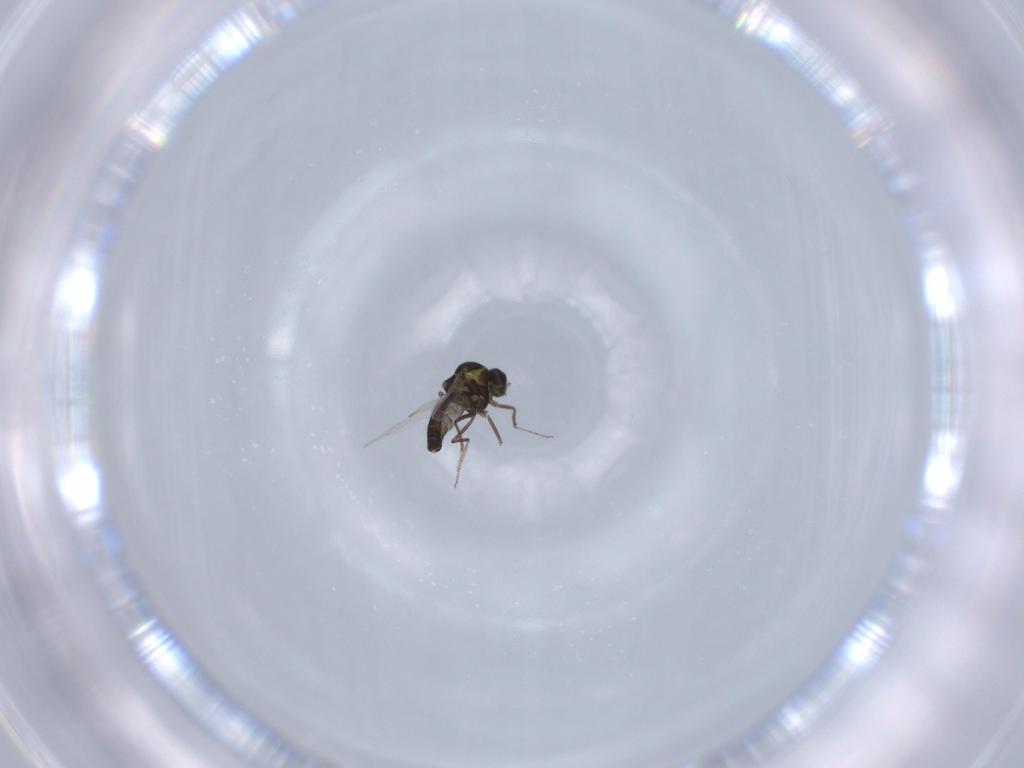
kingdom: Animalia
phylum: Arthropoda
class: Insecta
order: Diptera
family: Ceratopogonidae
